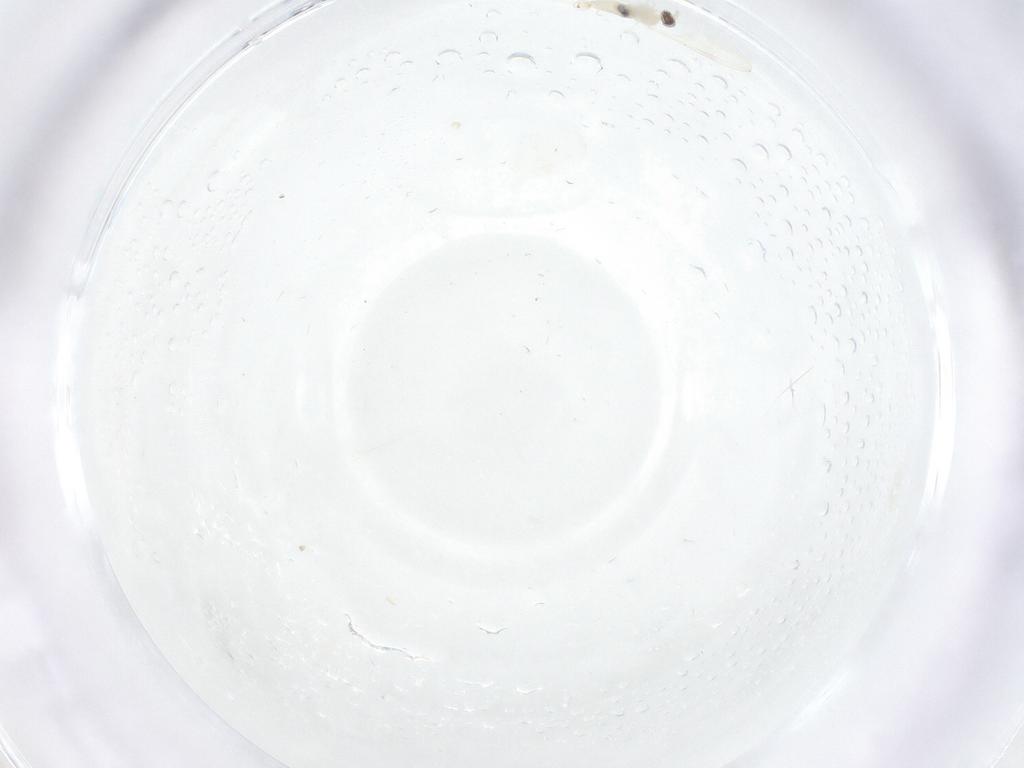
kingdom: Animalia
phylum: Arthropoda
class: Insecta
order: Diptera
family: Cecidomyiidae
